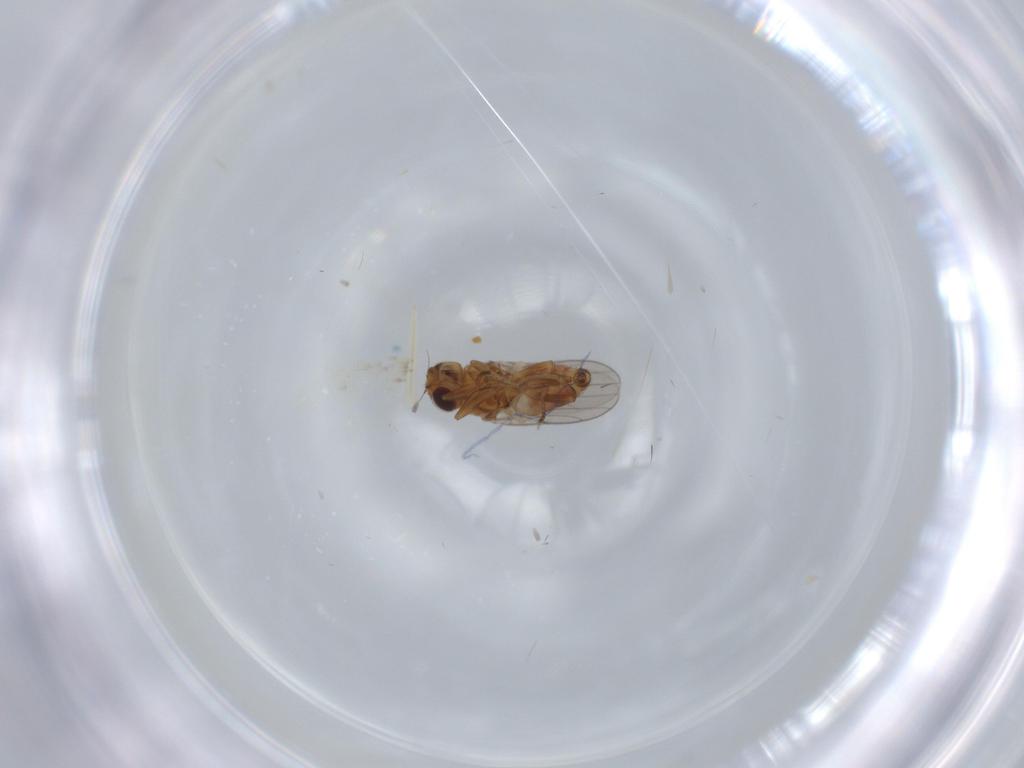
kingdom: Animalia
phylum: Arthropoda
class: Insecta
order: Diptera
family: Chloropidae
